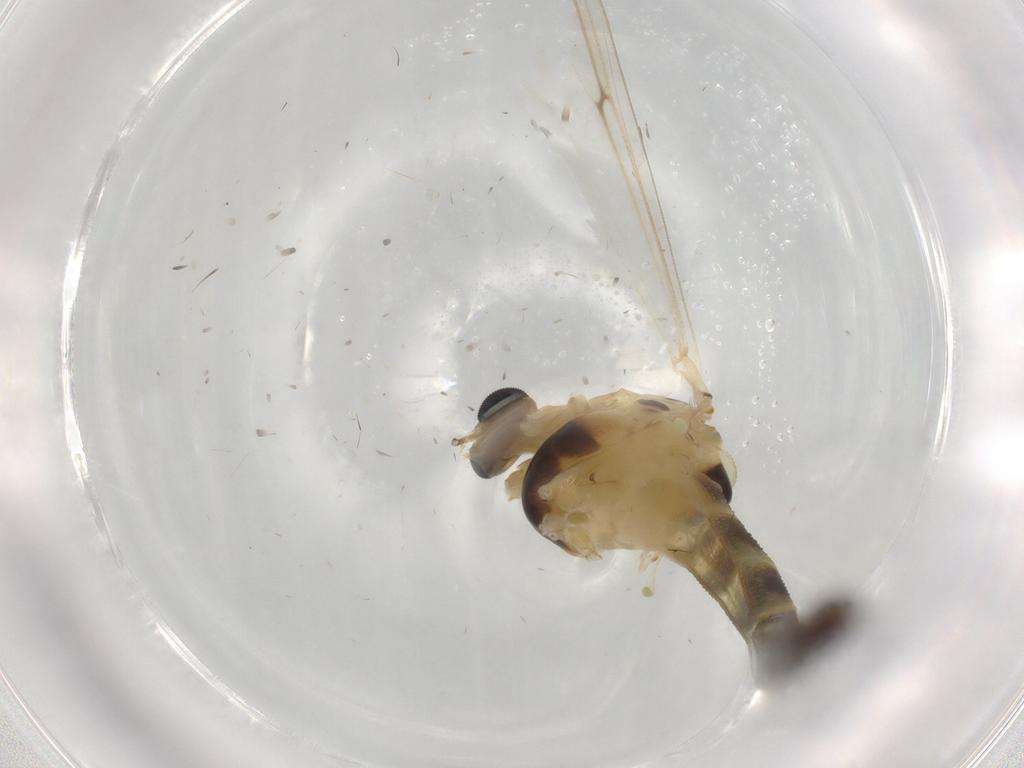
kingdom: Animalia
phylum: Arthropoda
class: Insecta
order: Diptera
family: Chironomidae
